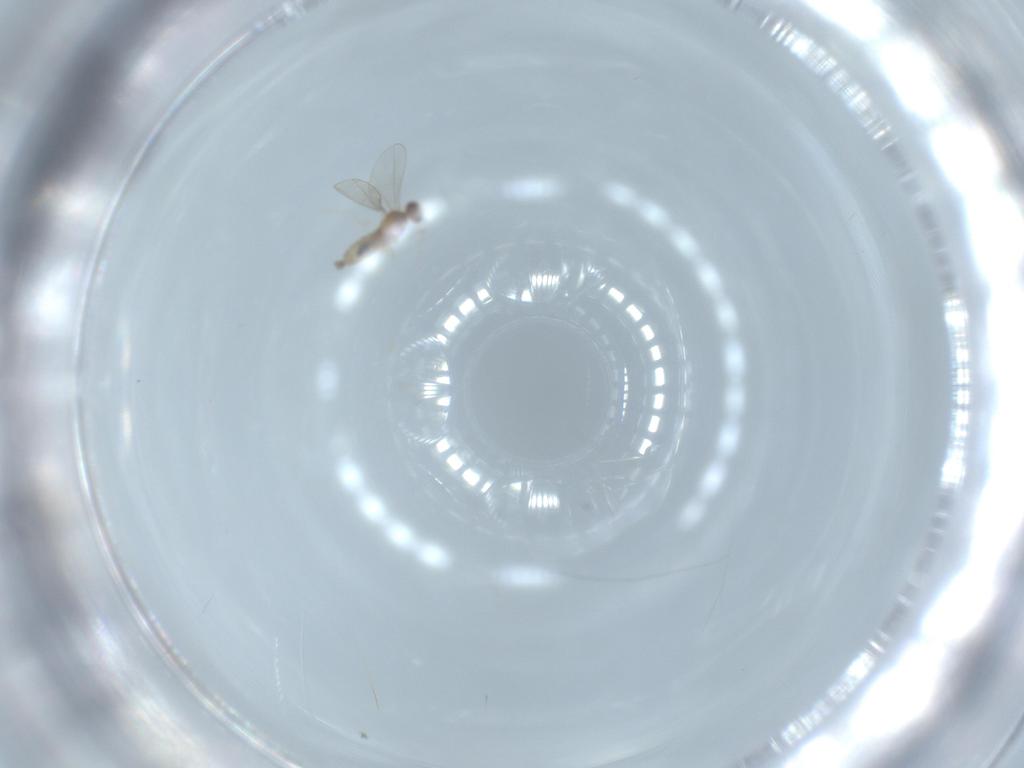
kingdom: Animalia
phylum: Arthropoda
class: Insecta
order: Diptera
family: Cecidomyiidae
